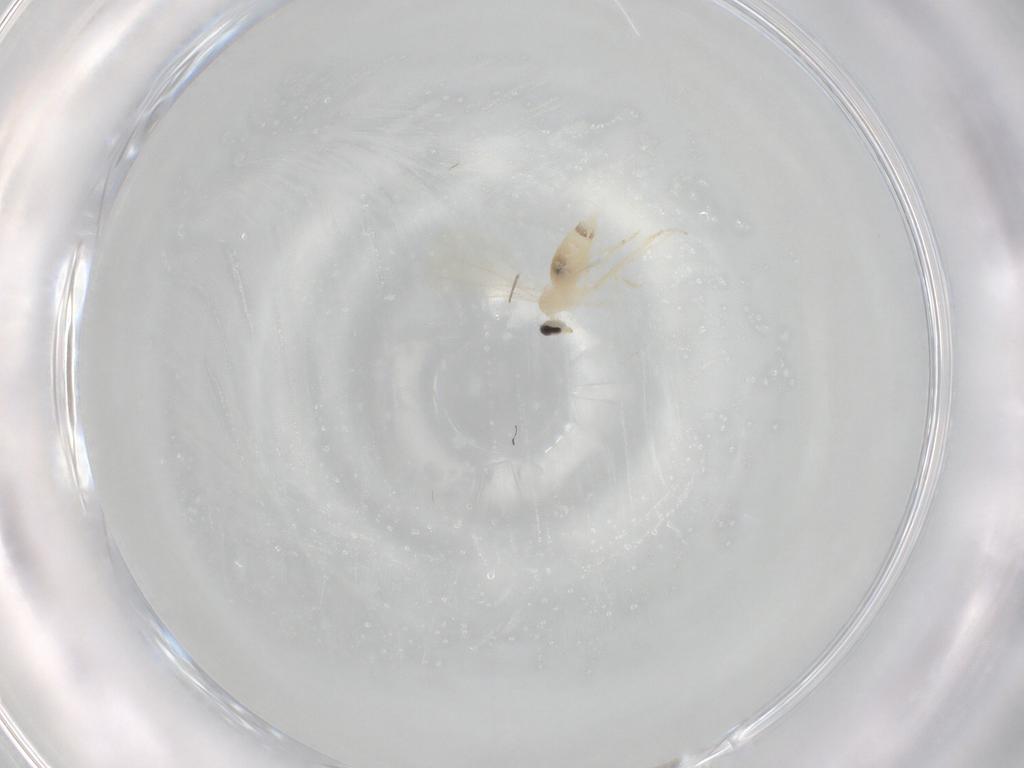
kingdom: Animalia
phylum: Arthropoda
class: Insecta
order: Diptera
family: Cecidomyiidae
